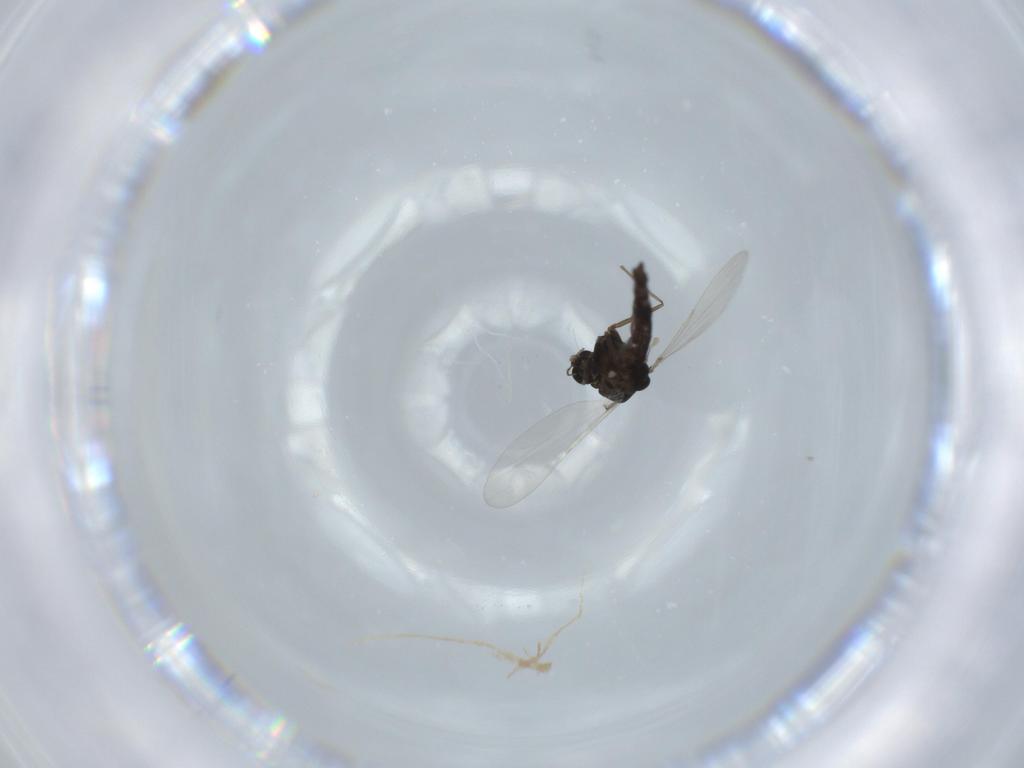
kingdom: Animalia
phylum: Arthropoda
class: Insecta
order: Diptera
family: Chironomidae
